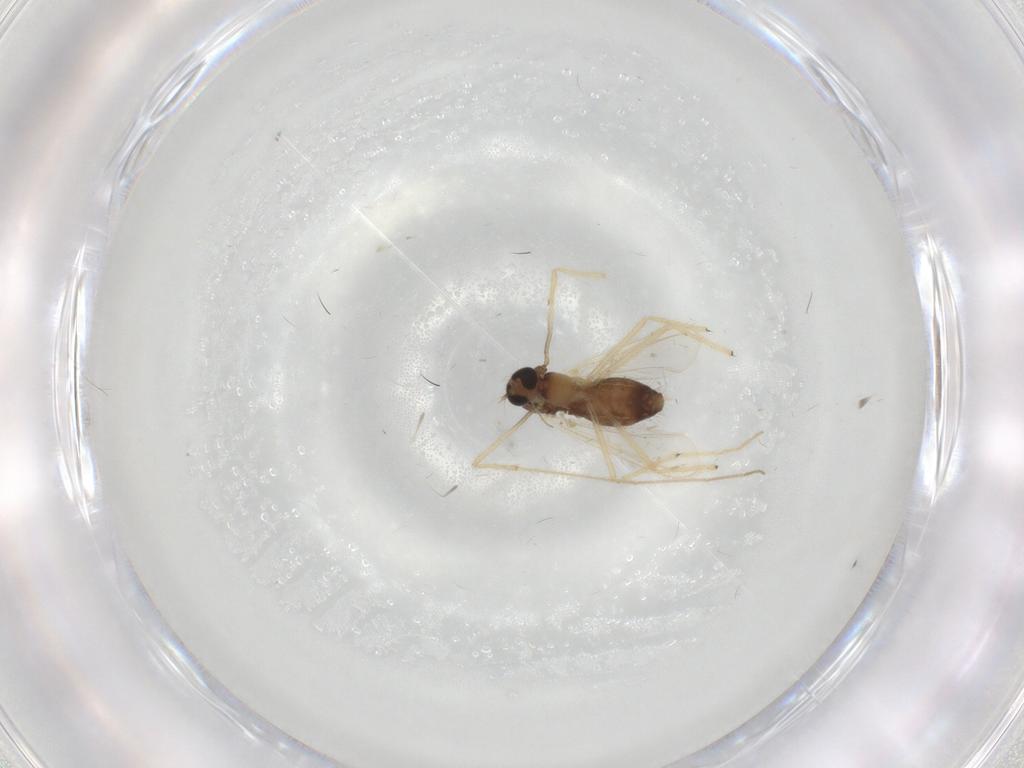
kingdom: Animalia
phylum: Arthropoda
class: Insecta
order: Diptera
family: Chironomidae
